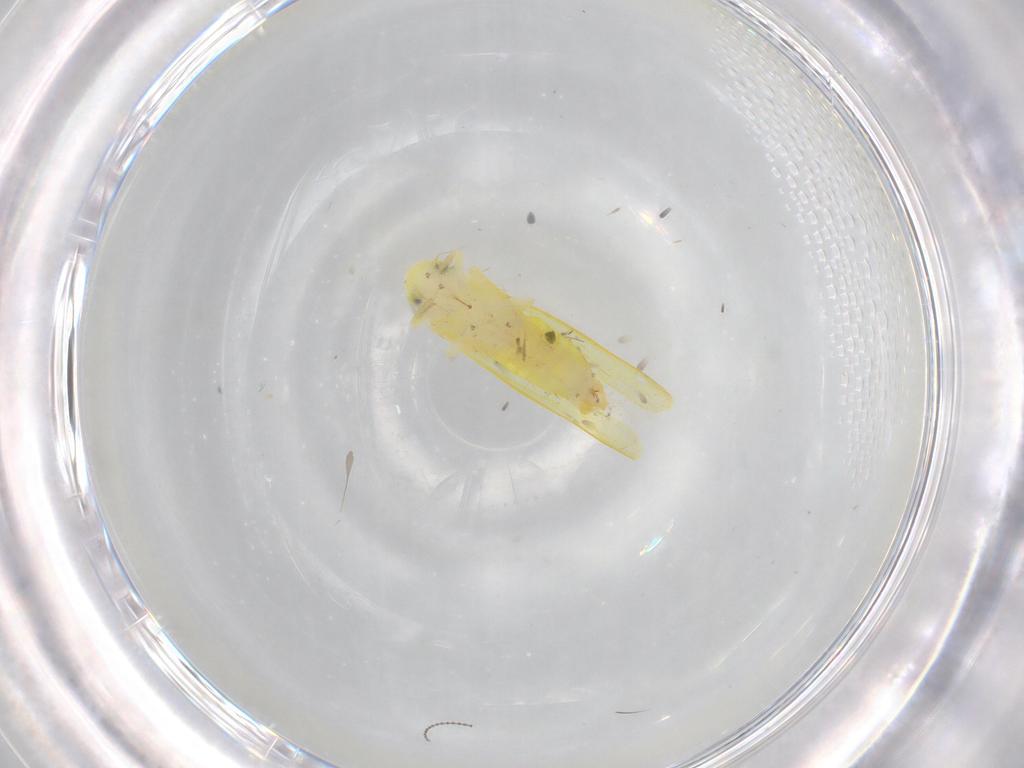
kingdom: Animalia
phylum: Arthropoda
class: Insecta
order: Hemiptera
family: Cicadellidae
